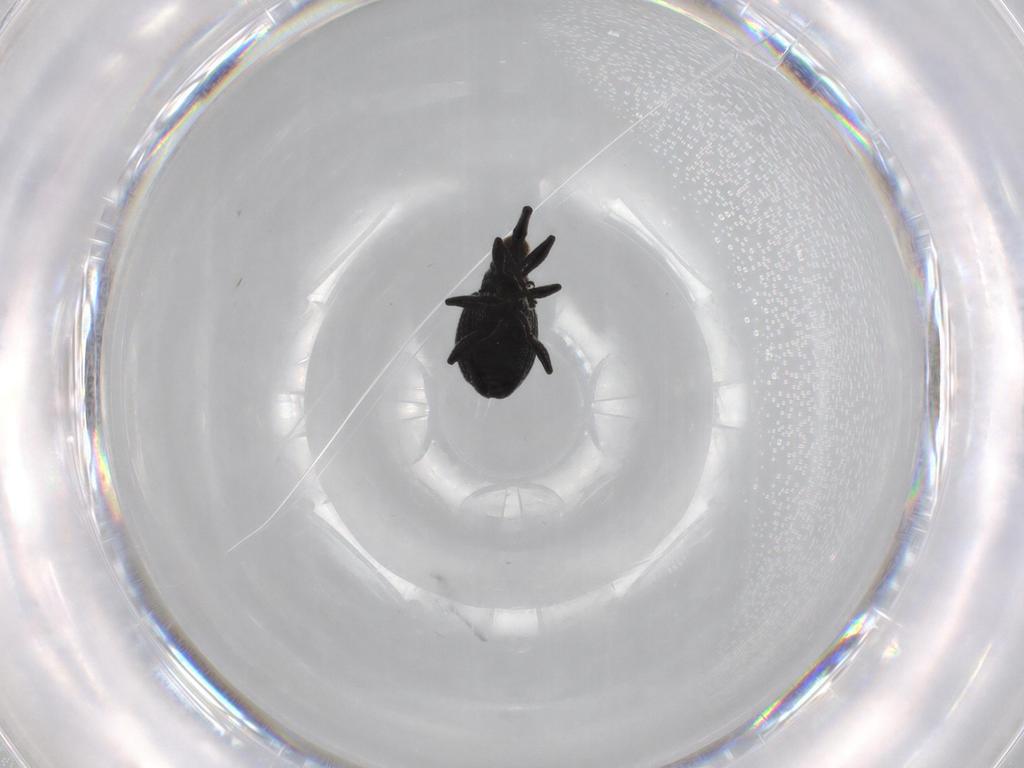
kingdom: Animalia
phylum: Arthropoda
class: Insecta
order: Coleoptera
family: Brentidae
